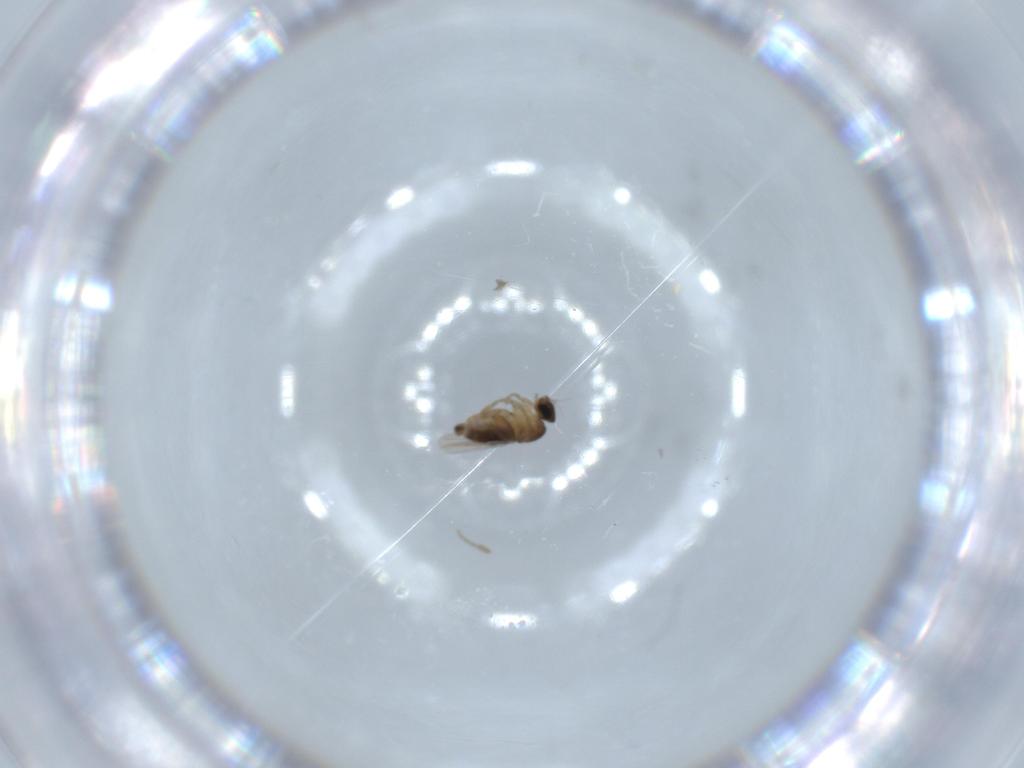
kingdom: Animalia
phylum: Arthropoda
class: Insecta
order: Diptera
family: Phoridae
